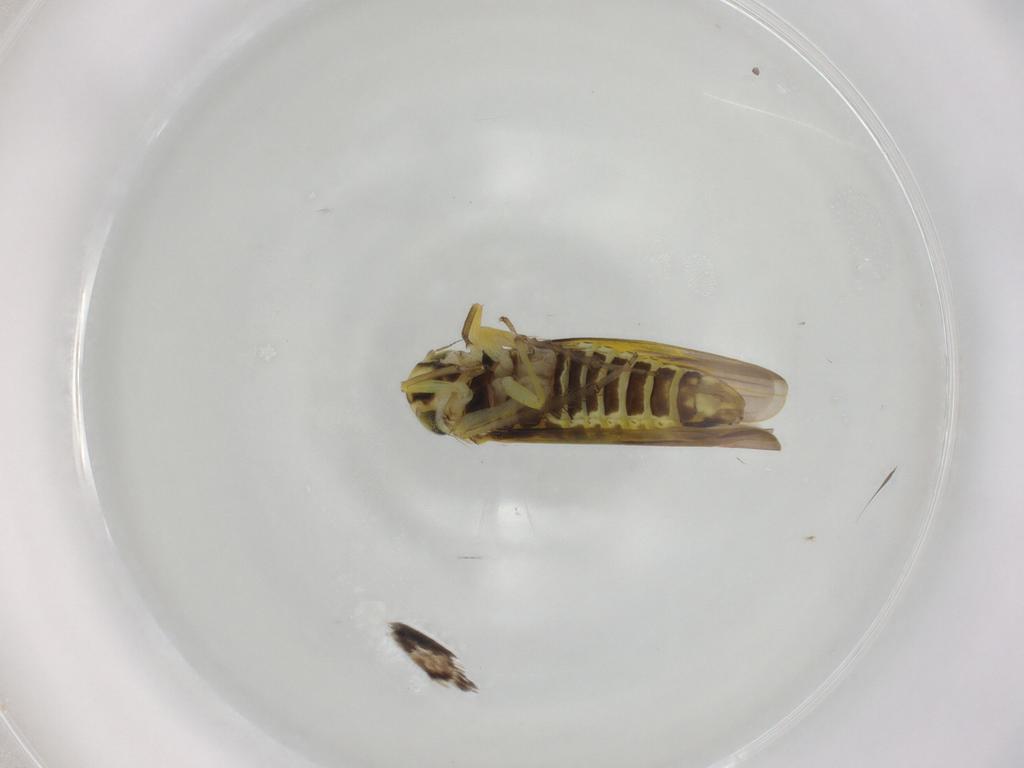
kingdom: Animalia
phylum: Arthropoda
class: Insecta
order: Hemiptera
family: Cicadellidae
